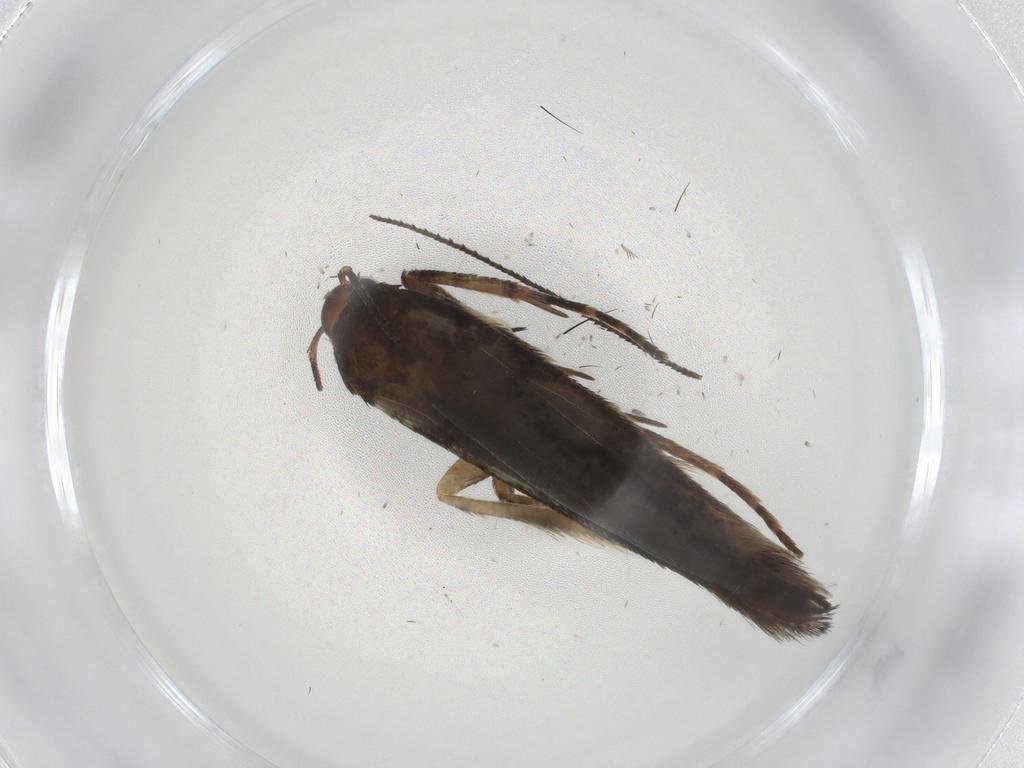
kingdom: Animalia
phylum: Arthropoda
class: Insecta
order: Lepidoptera
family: Gelechiidae
